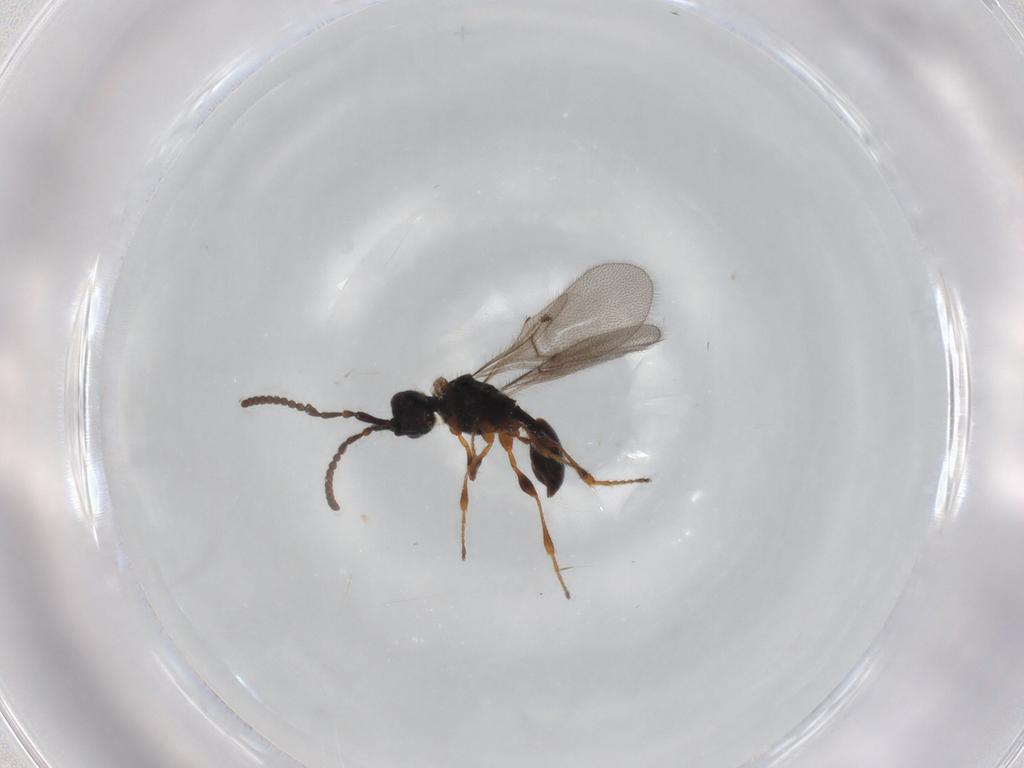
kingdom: Animalia
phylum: Arthropoda
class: Insecta
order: Hymenoptera
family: Diapriidae
